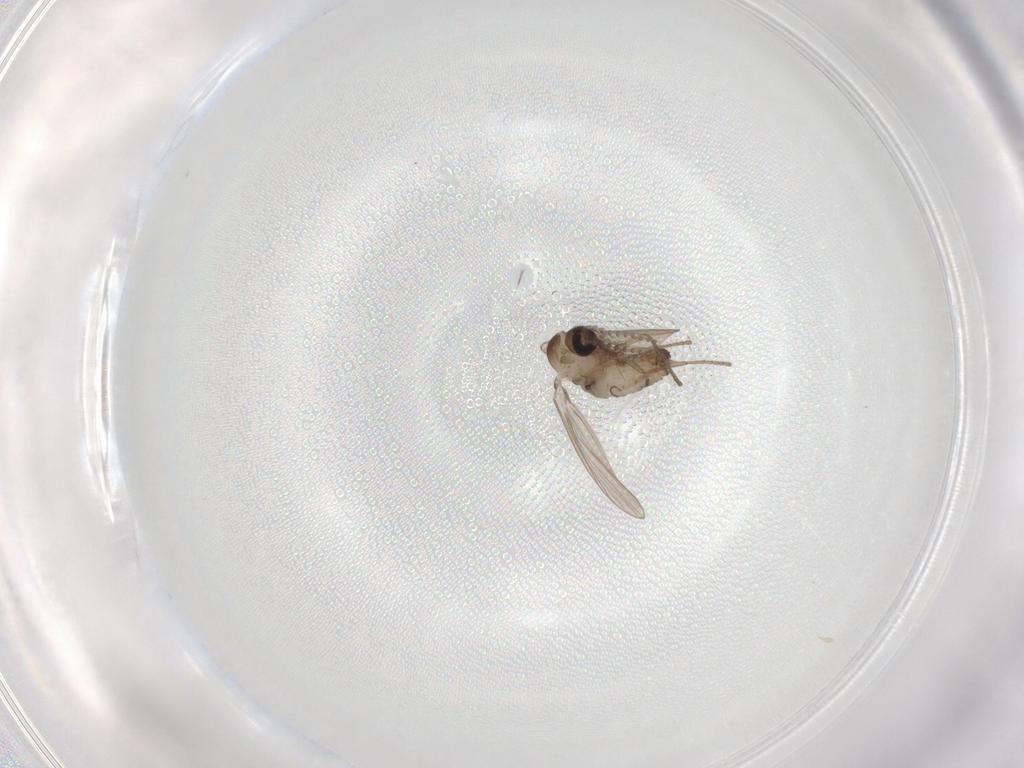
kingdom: Animalia
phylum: Arthropoda
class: Insecta
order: Diptera
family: Psychodidae
